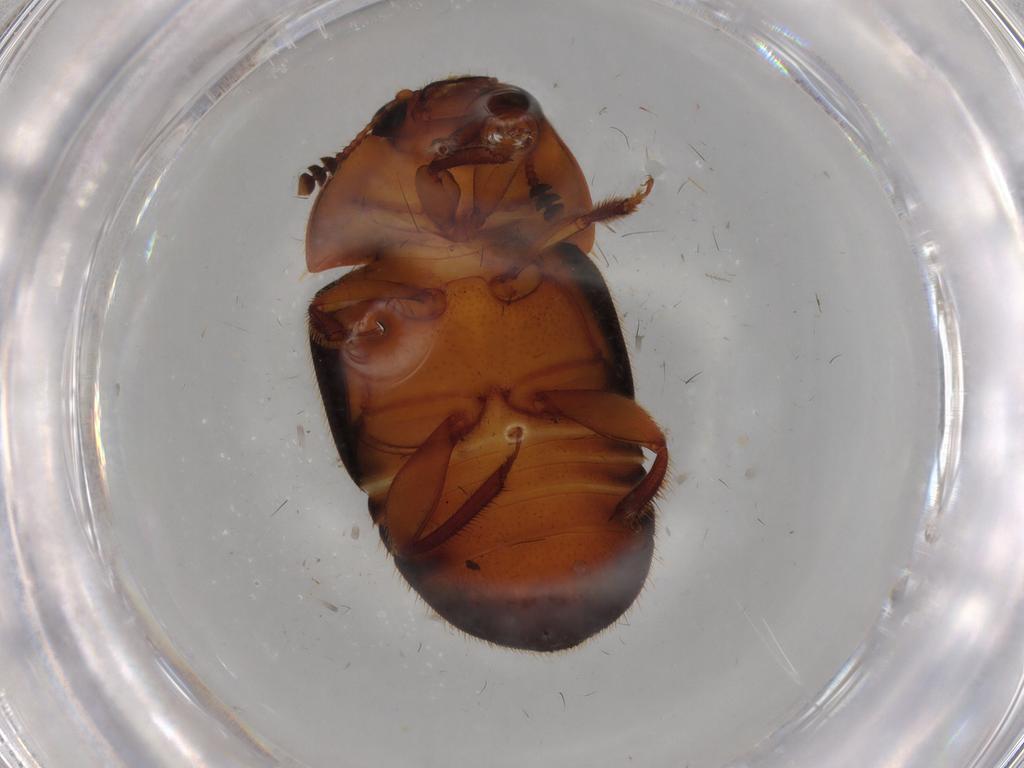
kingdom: Animalia
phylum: Arthropoda
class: Insecta
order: Coleoptera
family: Nitidulidae
